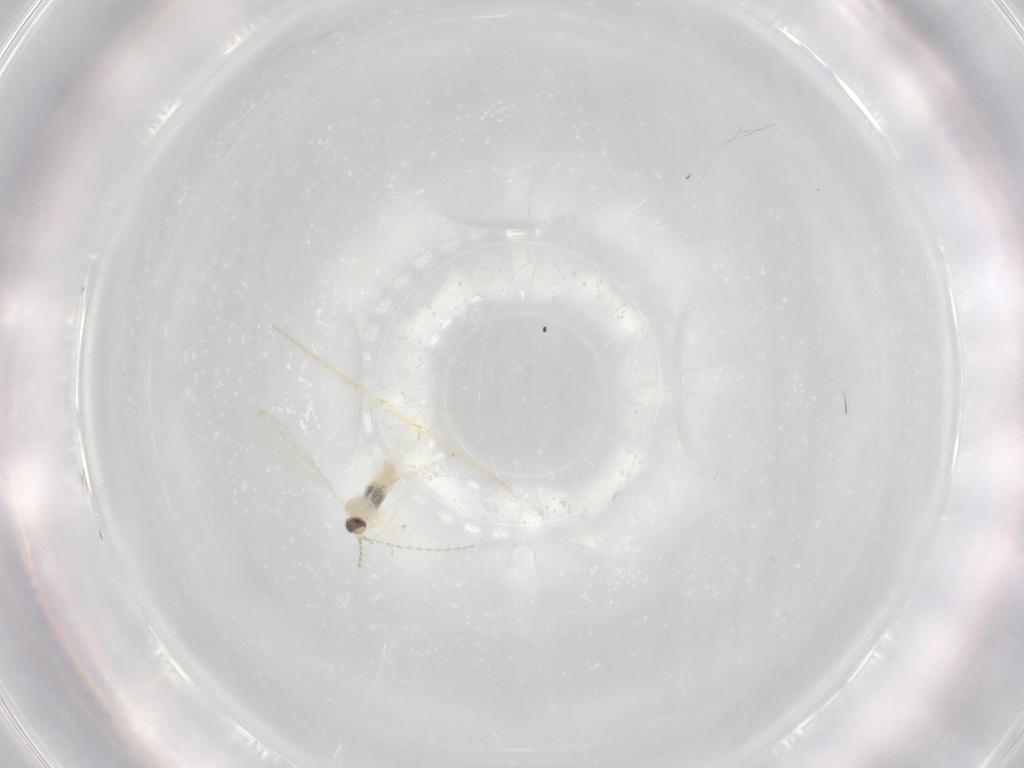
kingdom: Animalia
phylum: Arthropoda
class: Insecta
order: Diptera
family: Cecidomyiidae
